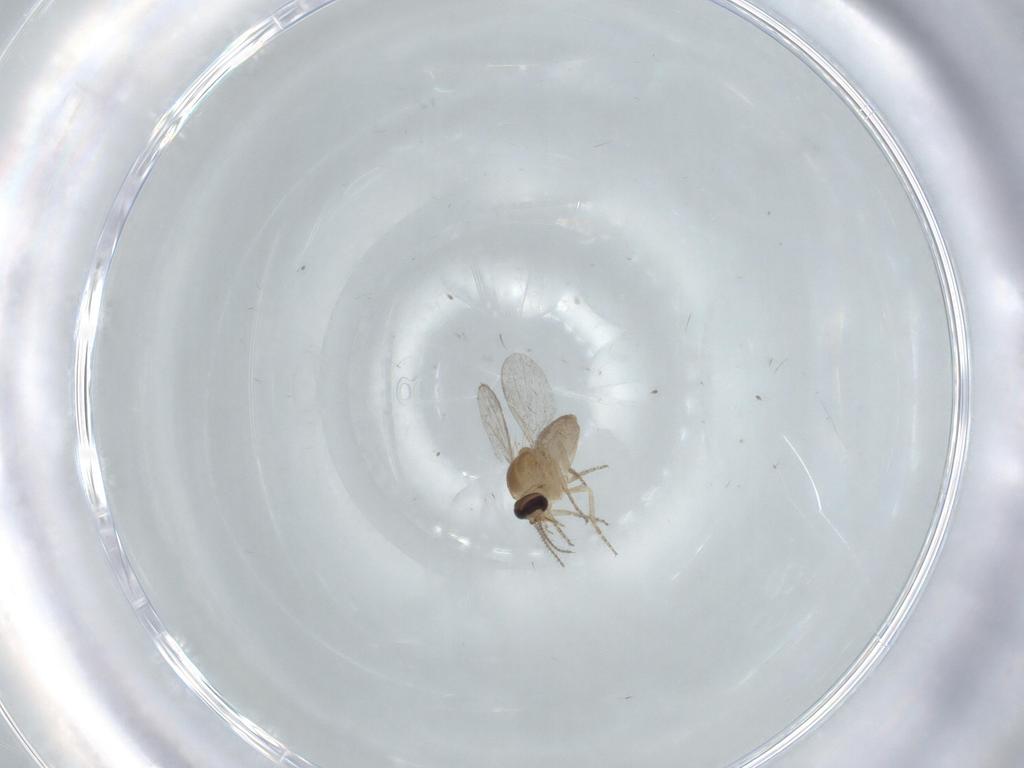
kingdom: Animalia
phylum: Arthropoda
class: Insecta
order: Diptera
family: Ceratopogonidae
